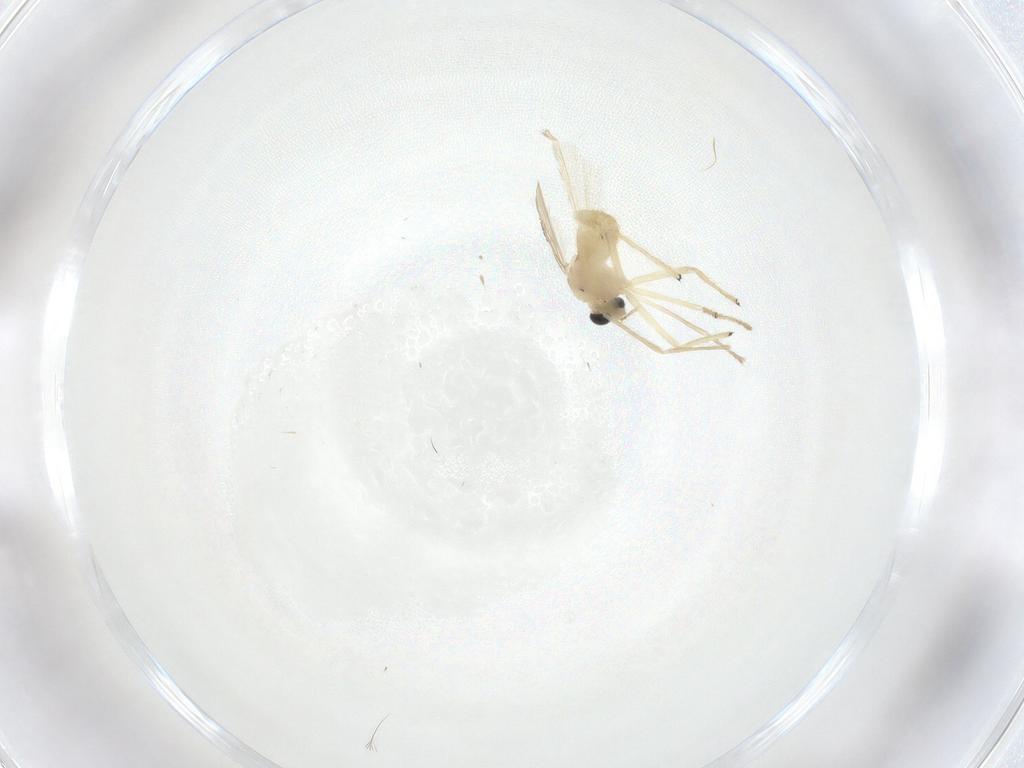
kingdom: Animalia
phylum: Arthropoda
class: Insecta
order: Diptera
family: Chironomidae
